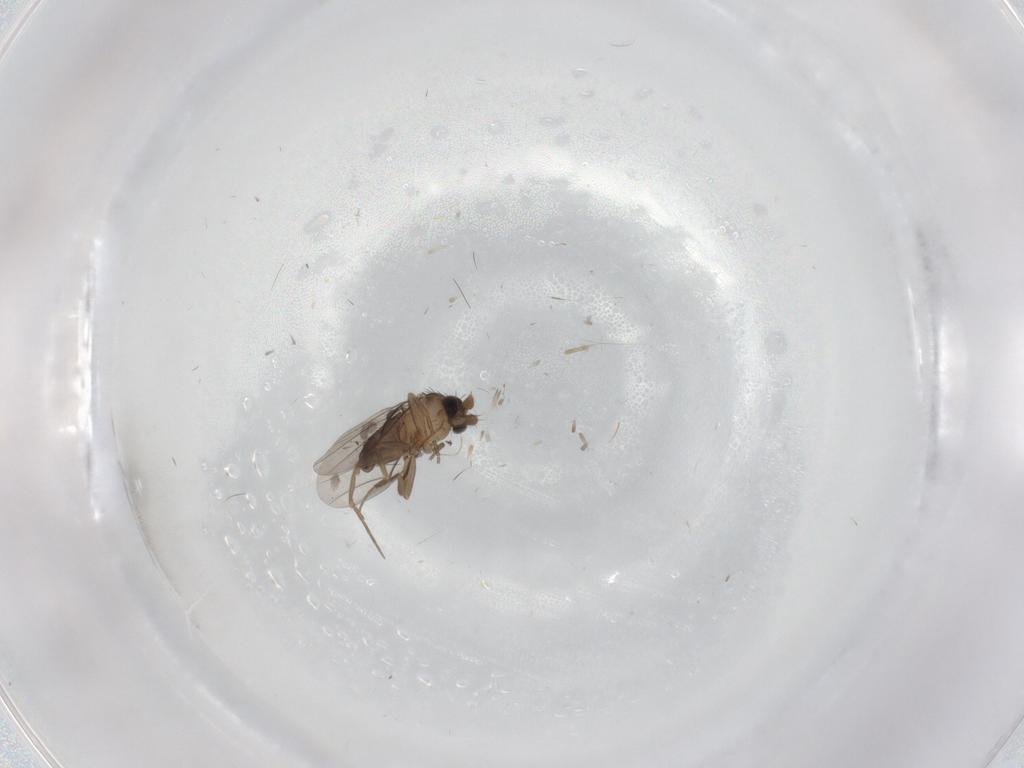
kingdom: Animalia
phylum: Arthropoda
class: Insecta
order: Diptera
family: Phoridae
